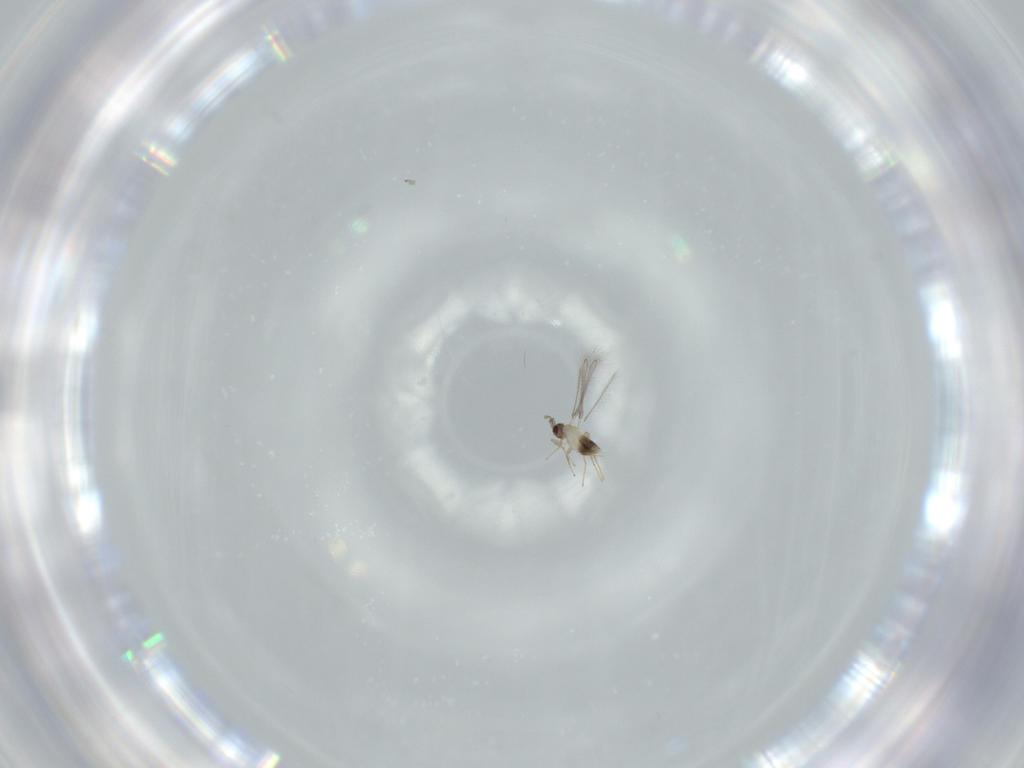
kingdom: Animalia
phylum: Arthropoda
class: Insecta
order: Hymenoptera
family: Mymaridae
